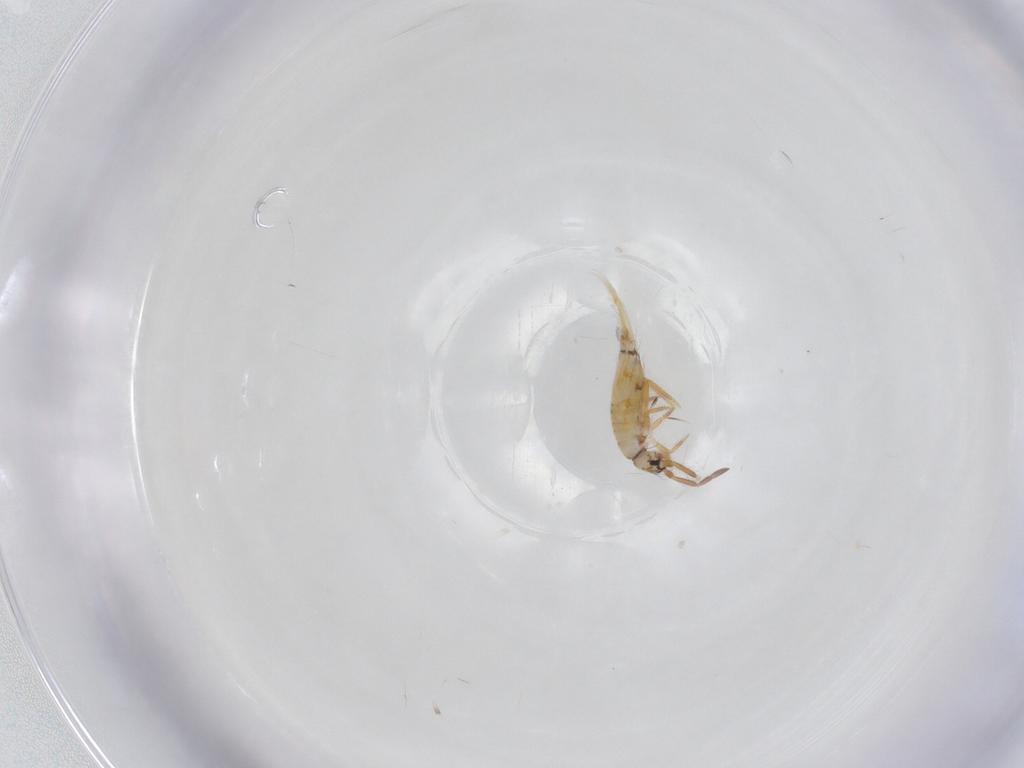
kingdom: Animalia
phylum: Arthropoda
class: Collembola
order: Entomobryomorpha
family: Entomobryidae
